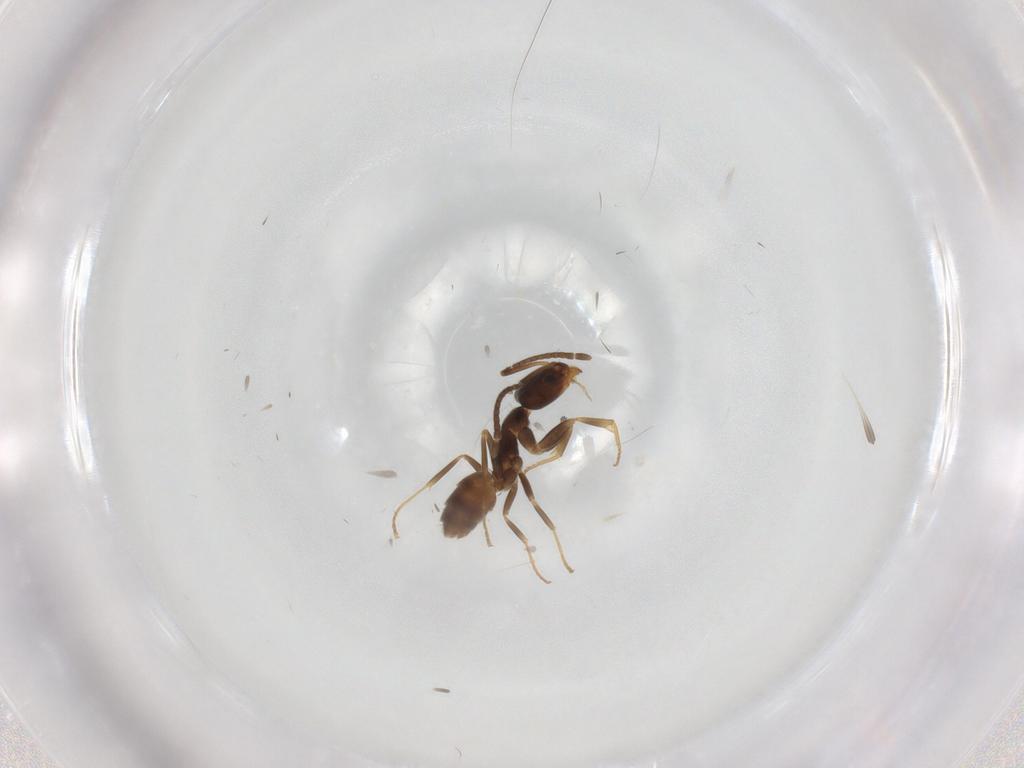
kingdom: Animalia
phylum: Arthropoda
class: Insecta
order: Hymenoptera
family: Formicidae
